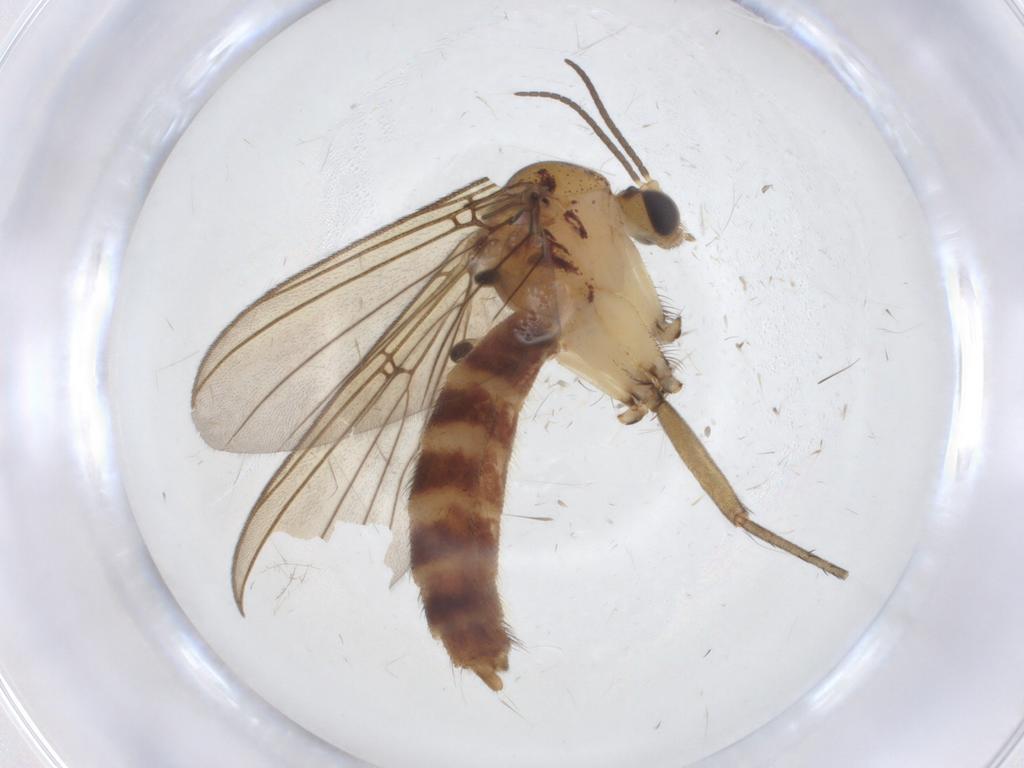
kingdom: Animalia
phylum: Arthropoda
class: Insecta
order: Diptera
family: Mycetophilidae
